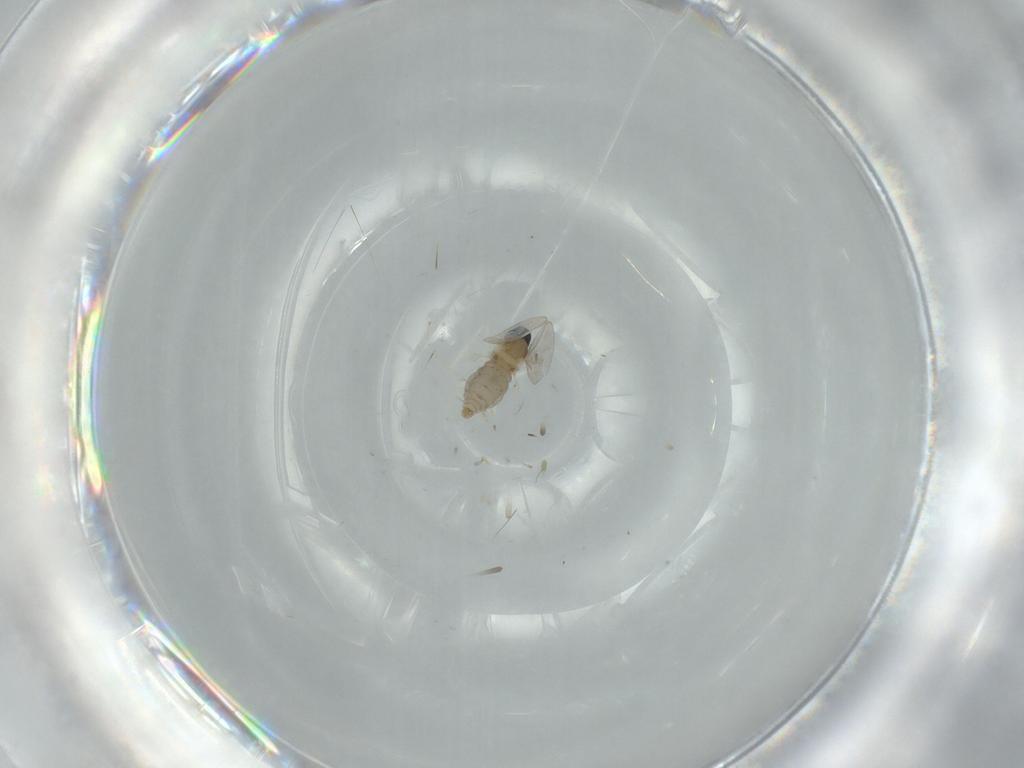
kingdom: Animalia
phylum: Arthropoda
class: Insecta
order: Diptera
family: Cecidomyiidae
